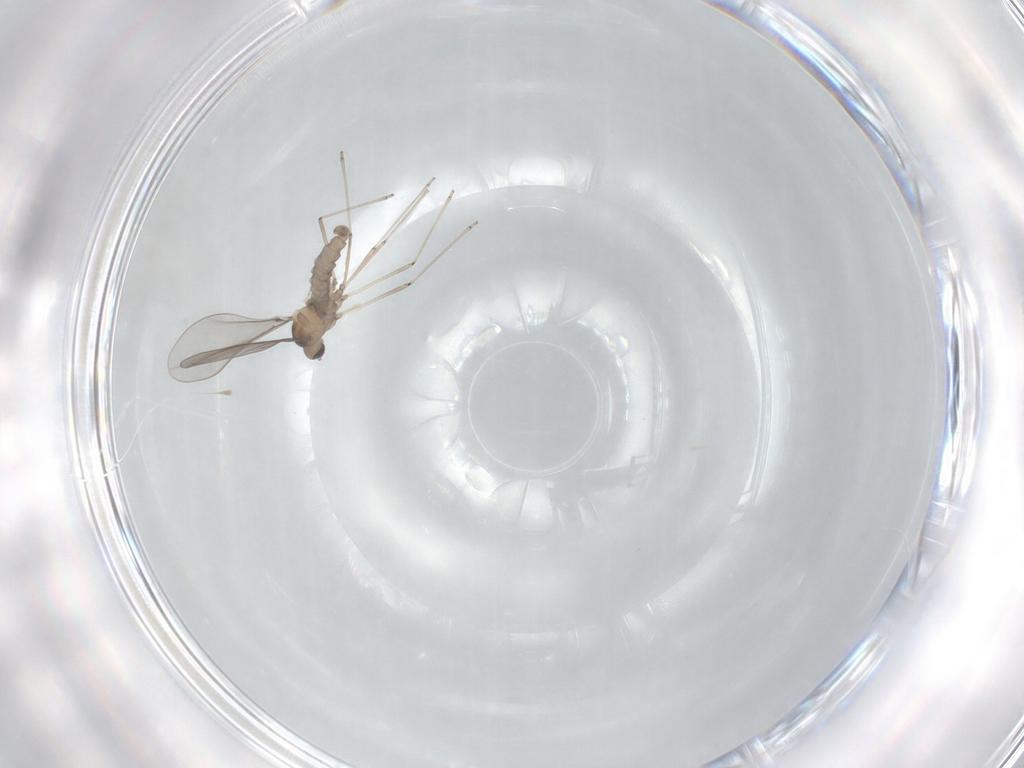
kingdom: Animalia
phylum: Arthropoda
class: Insecta
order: Diptera
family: Cecidomyiidae
